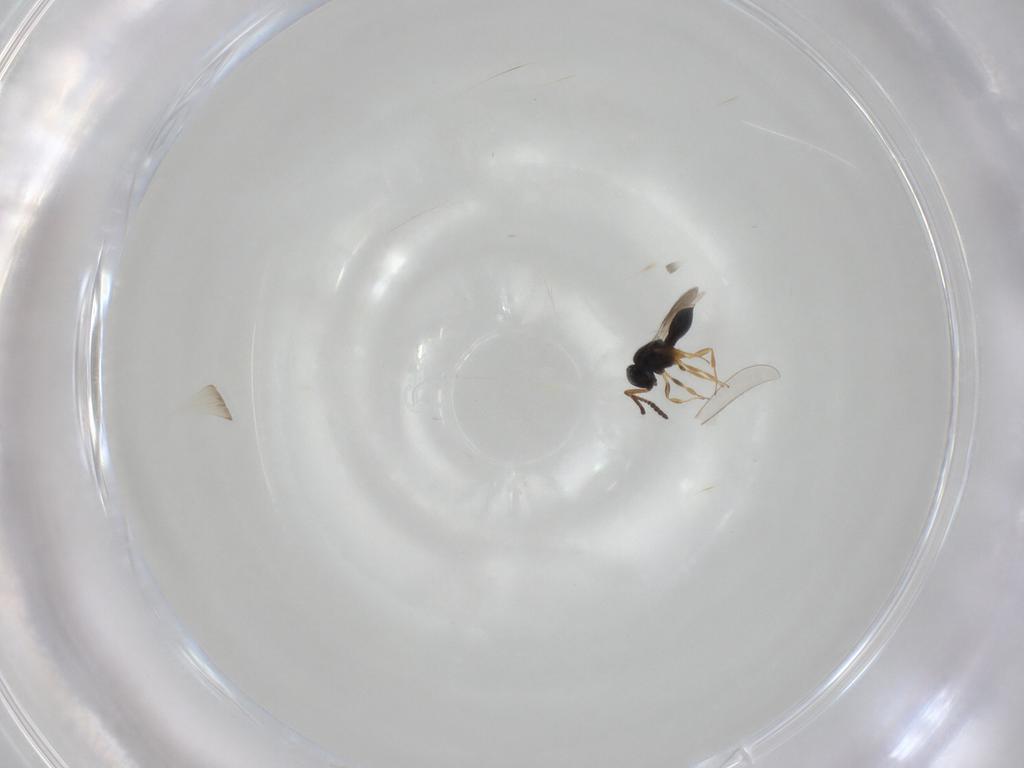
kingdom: Animalia
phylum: Arthropoda
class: Insecta
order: Hymenoptera
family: Scelionidae
